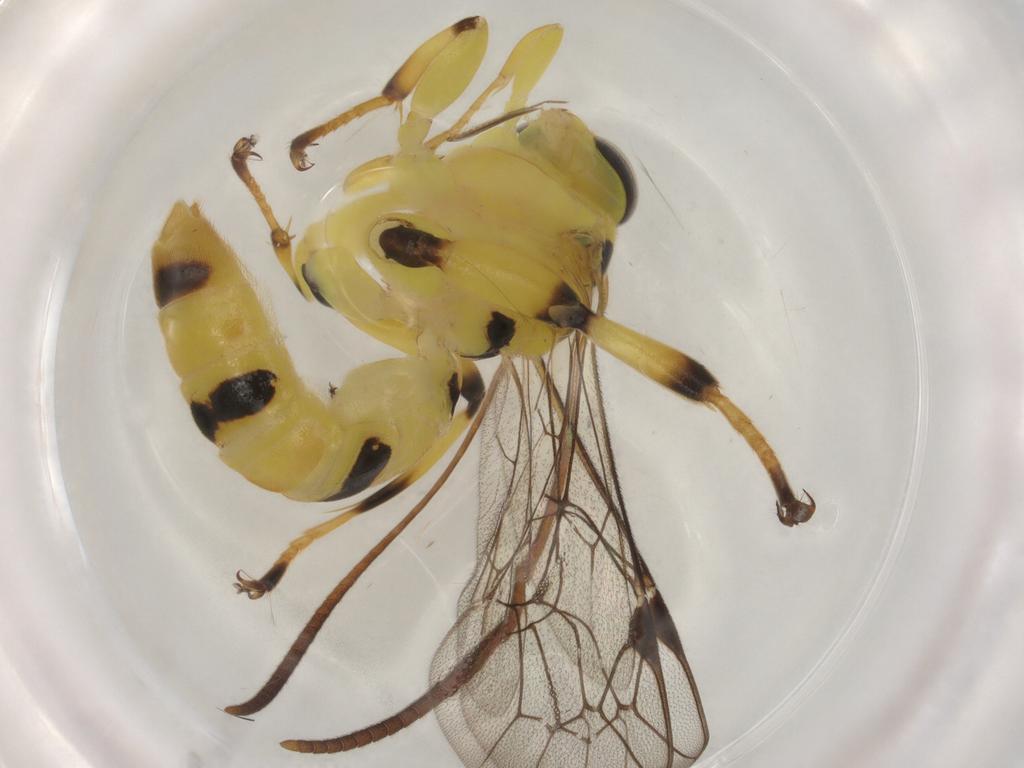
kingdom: Animalia
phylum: Arthropoda
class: Insecta
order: Hymenoptera
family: Ichneumonidae
